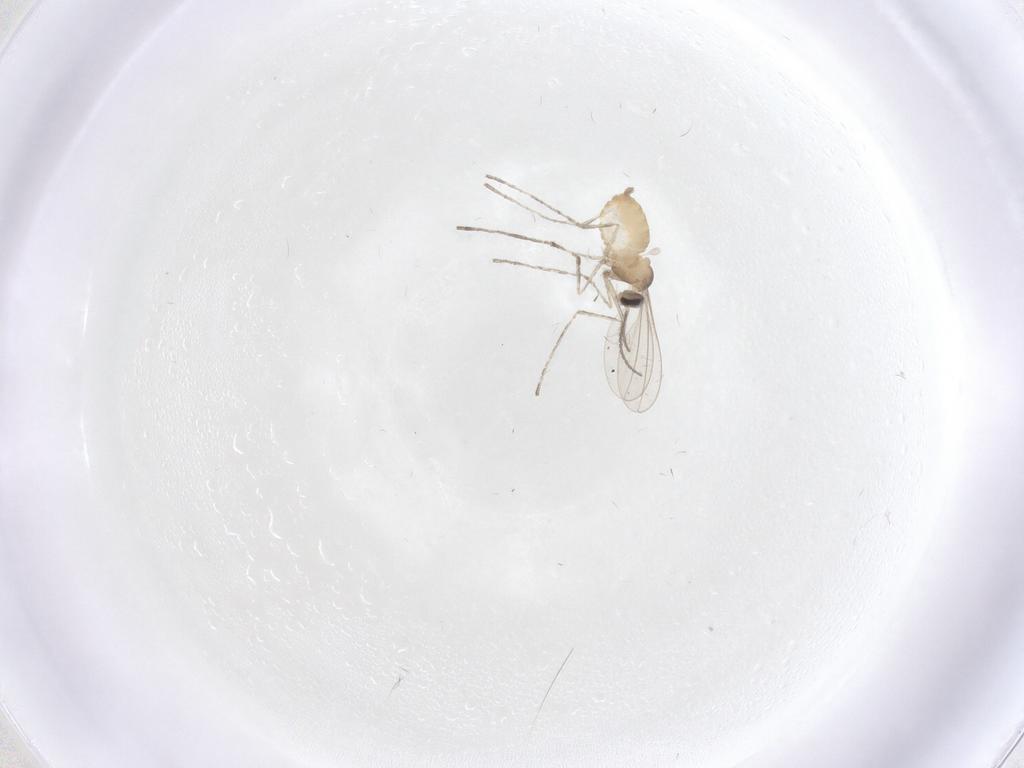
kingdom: Animalia
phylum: Arthropoda
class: Insecta
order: Diptera
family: Cecidomyiidae
